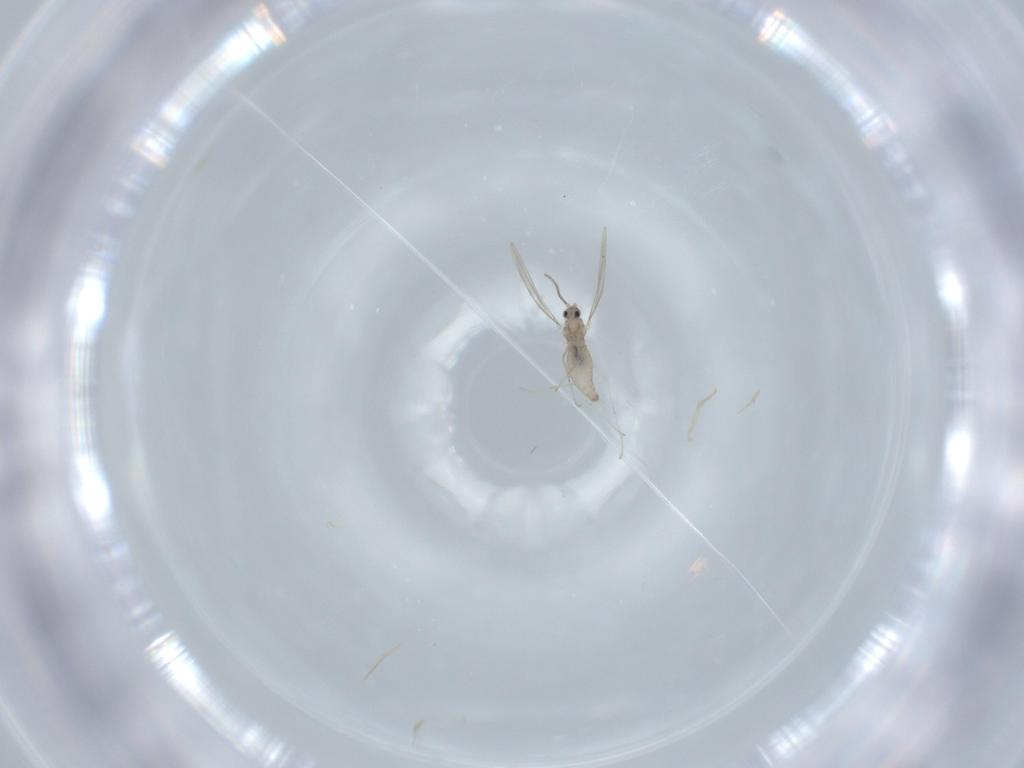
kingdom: Animalia
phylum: Arthropoda
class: Insecta
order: Diptera
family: Cecidomyiidae
